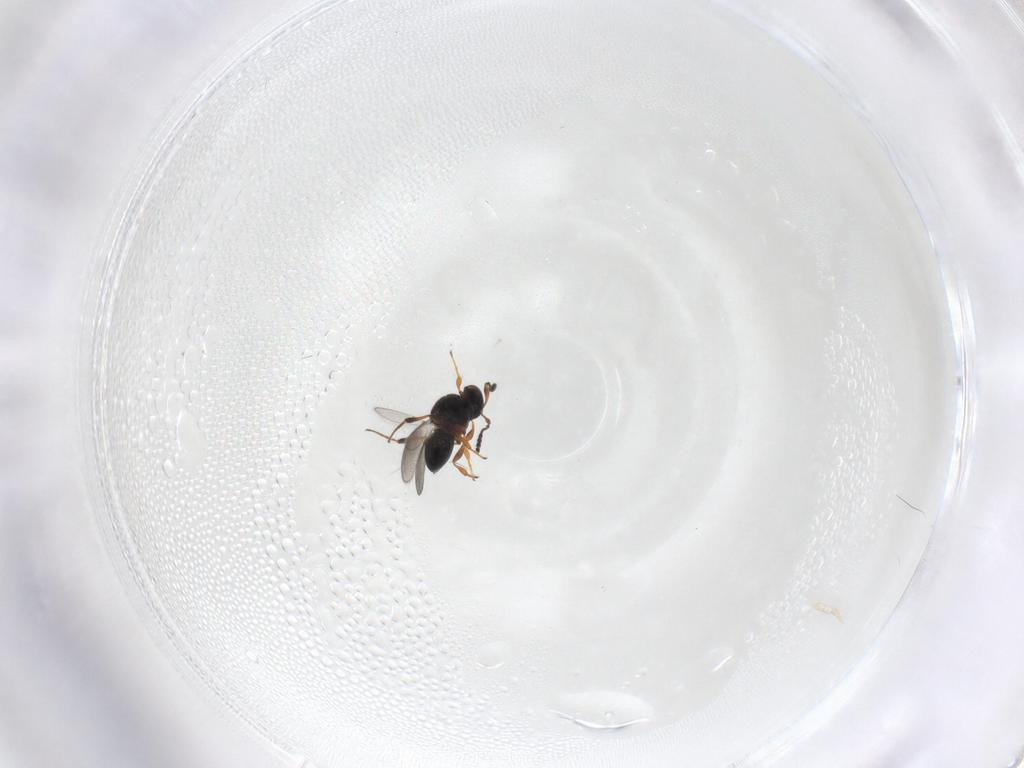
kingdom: Animalia
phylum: Arthropoda
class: Insecta
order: Hymenoptera
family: Platygastridae
